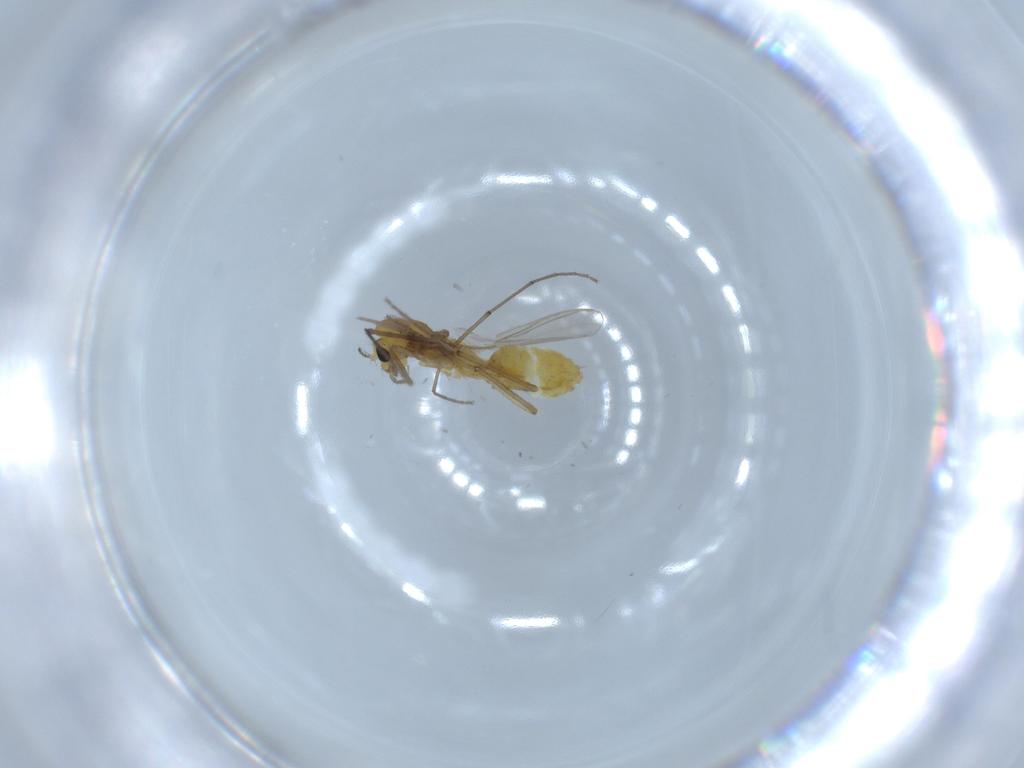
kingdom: Animalia
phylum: Arthropoda
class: Insecta
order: Diptera
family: Chironomidae
